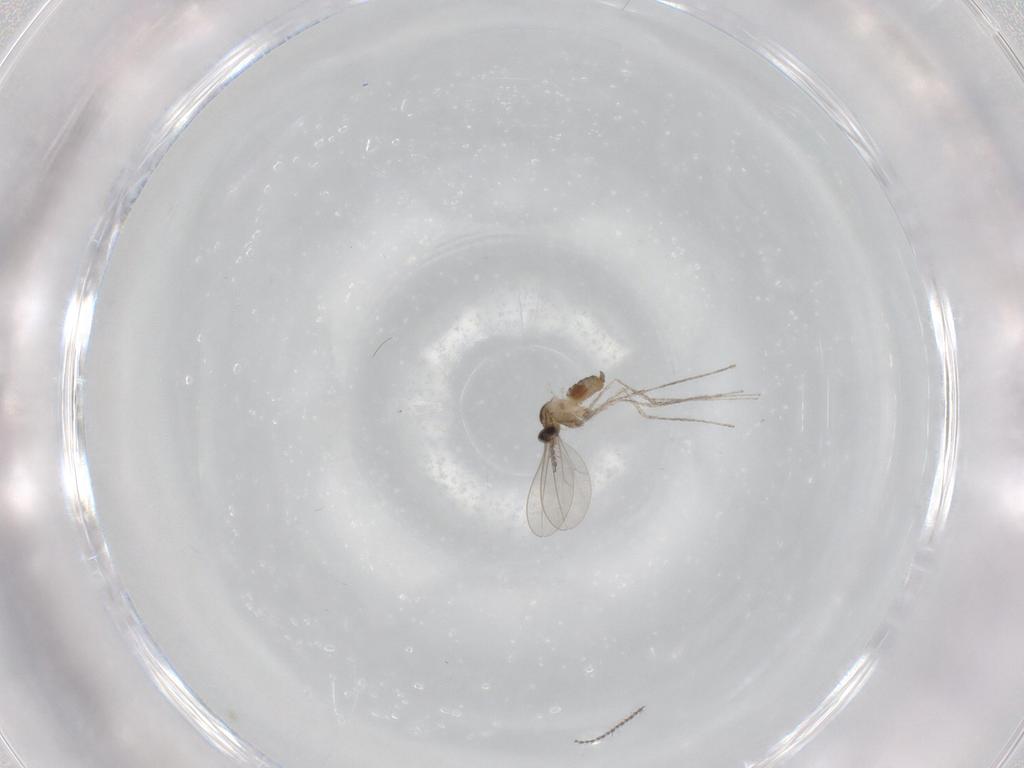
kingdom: Animalia
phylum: Arthropoda
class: Insecta
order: Diptera
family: Cecidomyiidae
